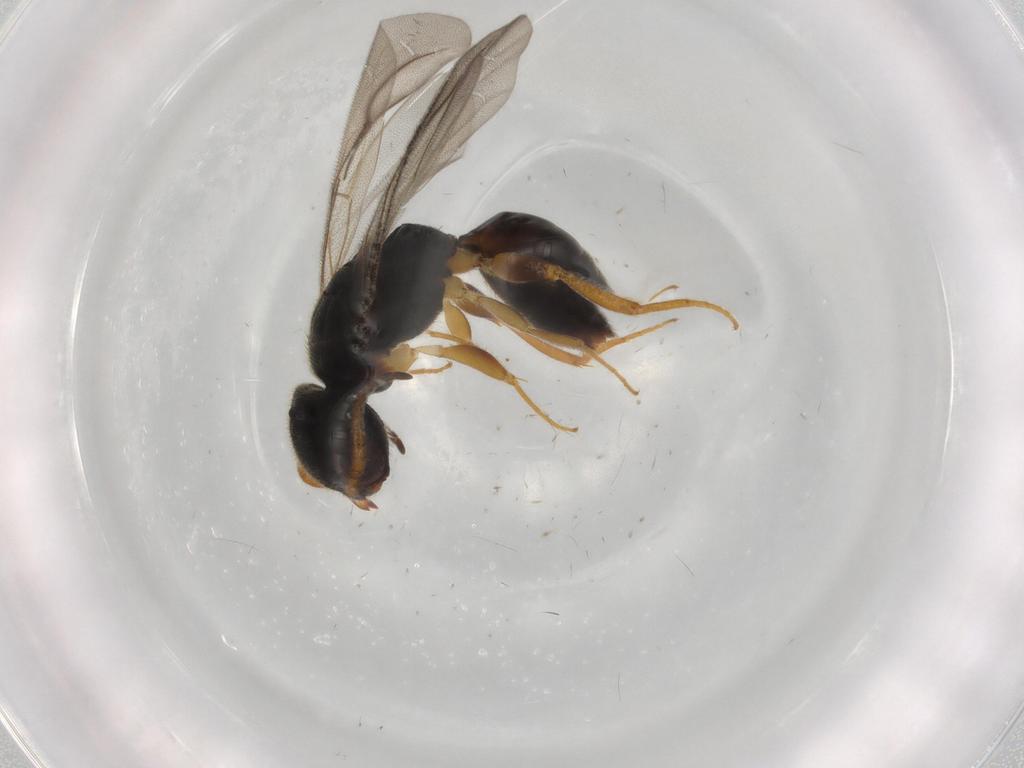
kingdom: Animalia
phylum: Arthropoda
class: Insecta
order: Hymenoptera
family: Bethylidae
